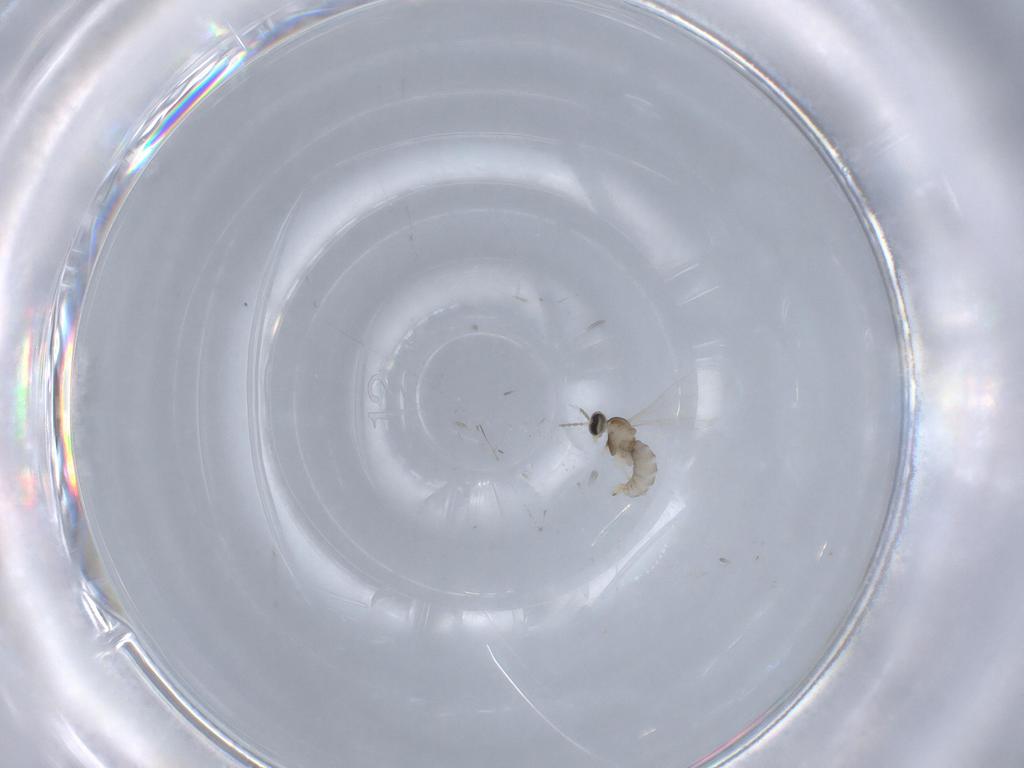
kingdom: Animalia
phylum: Arthropoda
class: Insecta
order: Diptera
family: Cecidomyiidae
